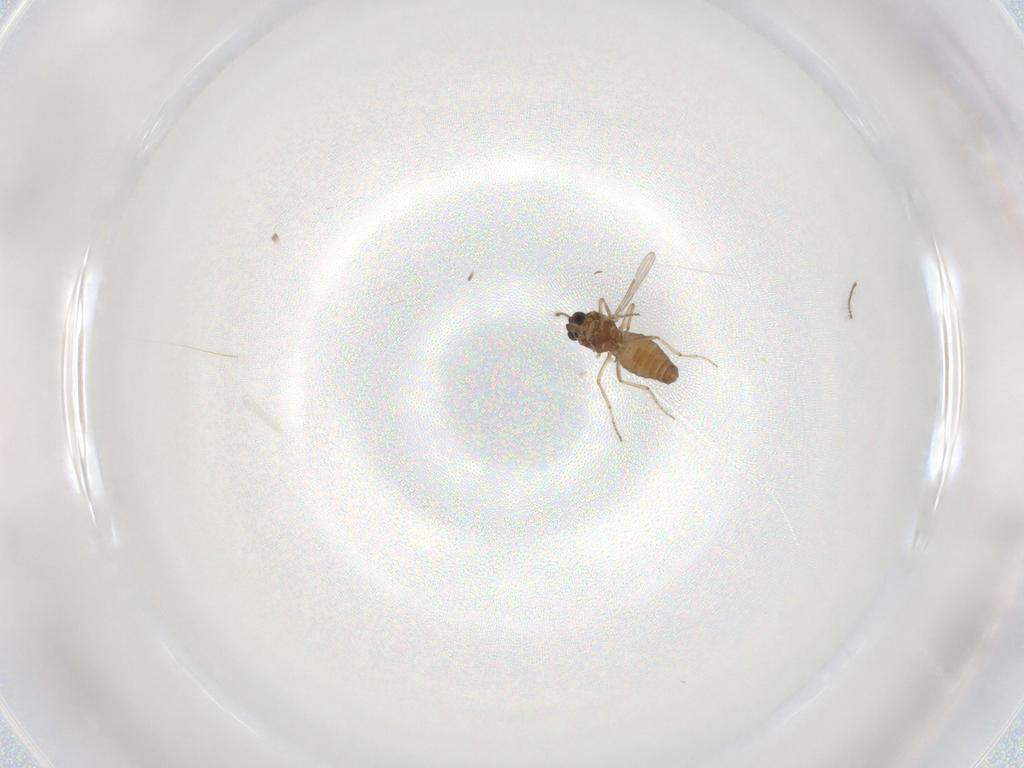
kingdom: Animalia
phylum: Arthropoda
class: Insecta
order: Diptera
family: Ceratopogonidae
